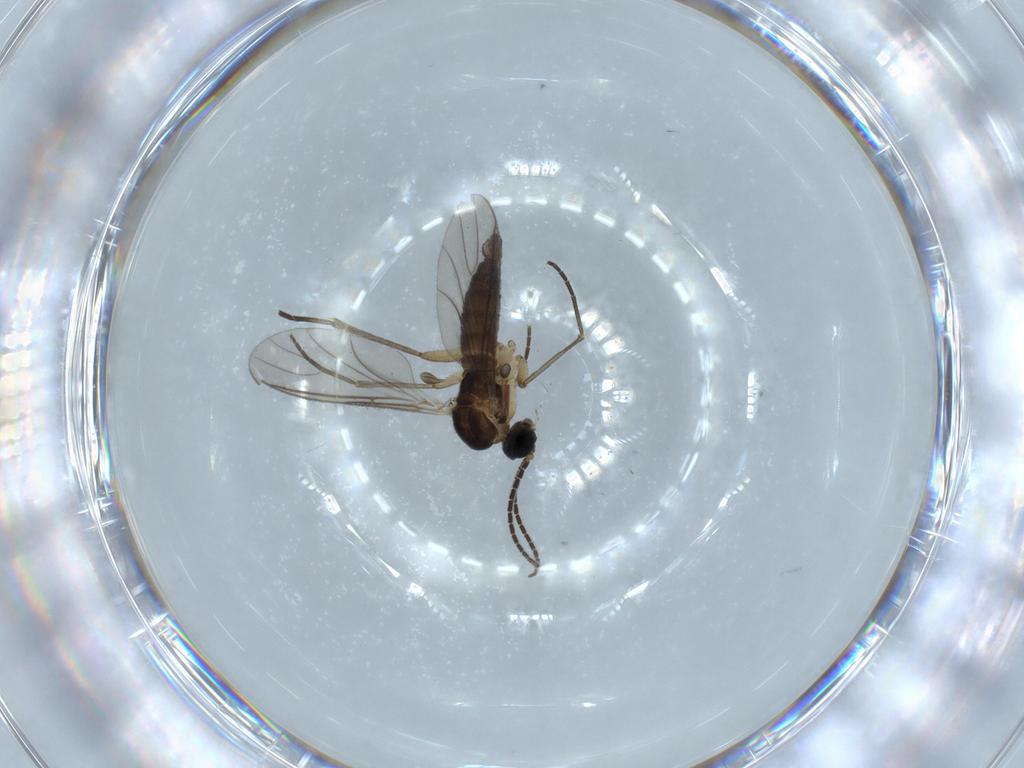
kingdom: Animalia
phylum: Arthropoda
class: Insecta
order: Diptera
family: Sciaridae
